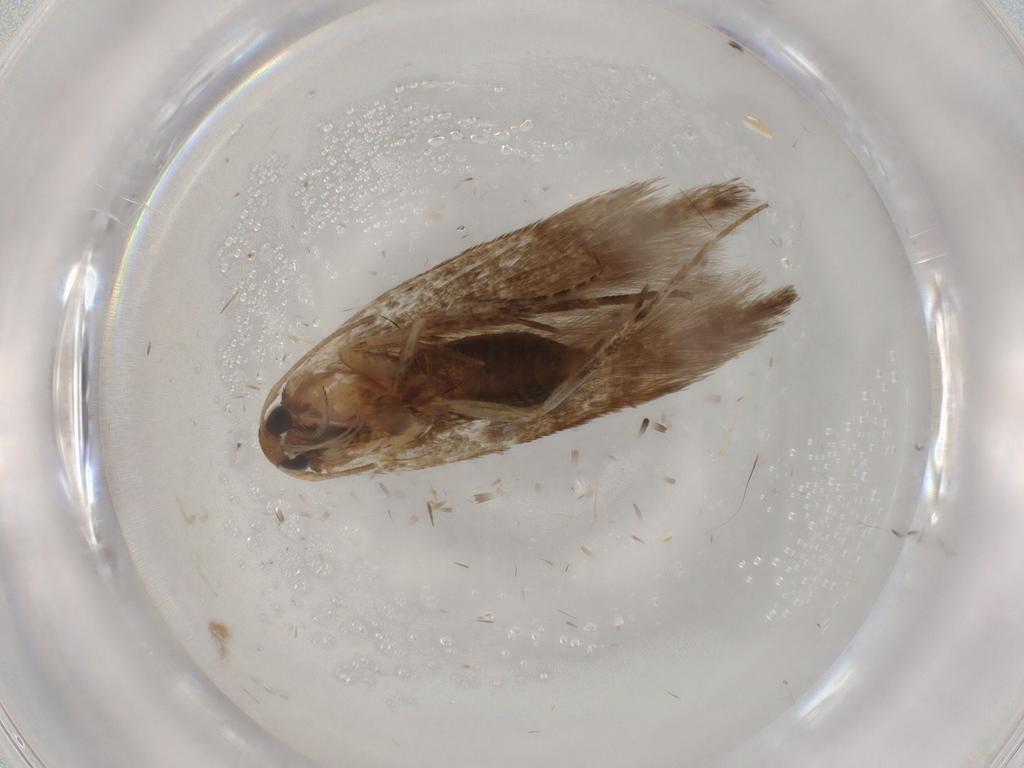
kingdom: Animalia
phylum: Arthropoda
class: Insecta
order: Lepidoptera
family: Cosmopterigidae
